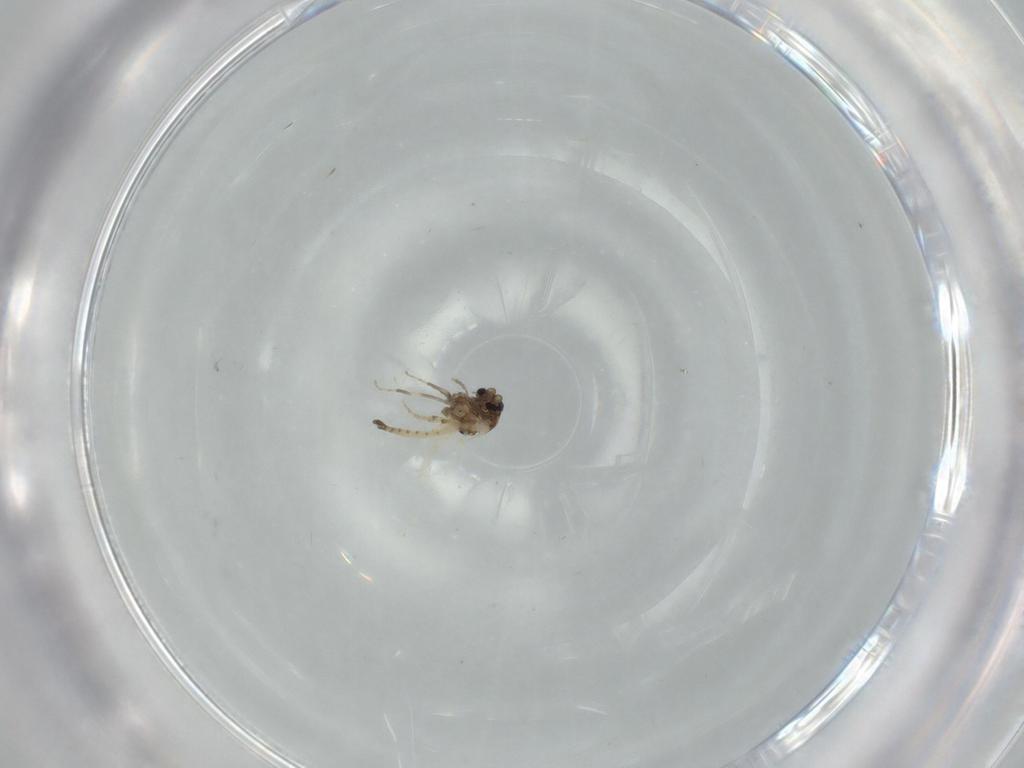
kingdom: Animalia
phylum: Arthropoda
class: Insecta
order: Diptera
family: Ceratopogonidae
